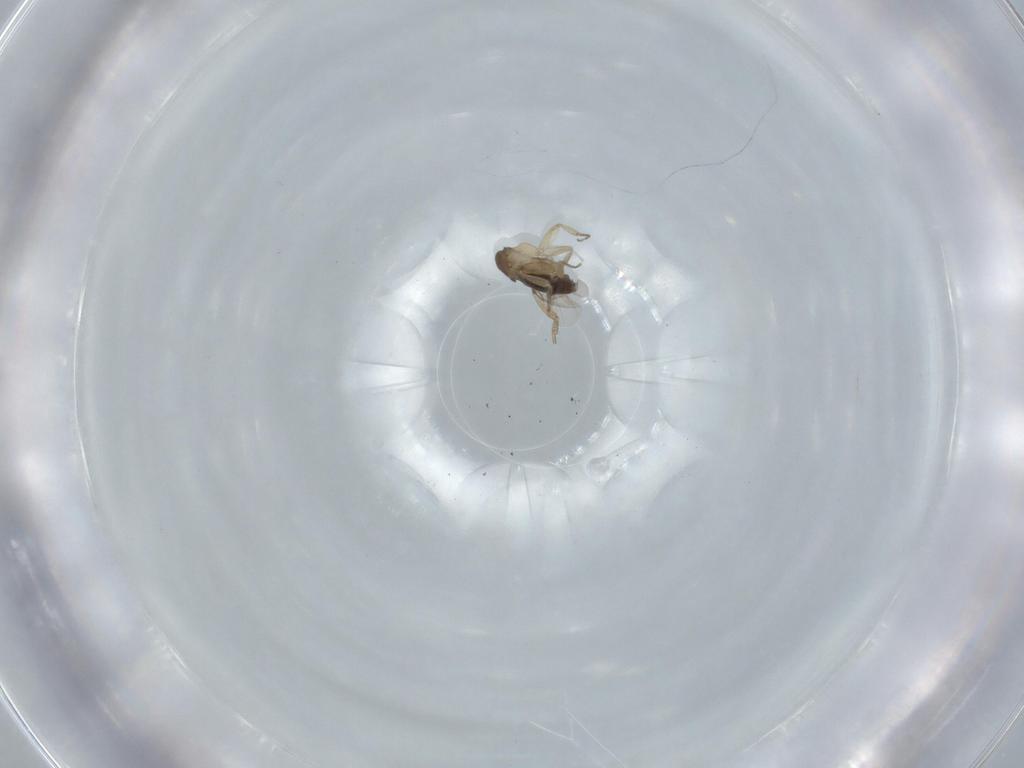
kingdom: Animalia
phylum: Arthropoda
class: Insecta
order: Diptera
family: Phoridae
